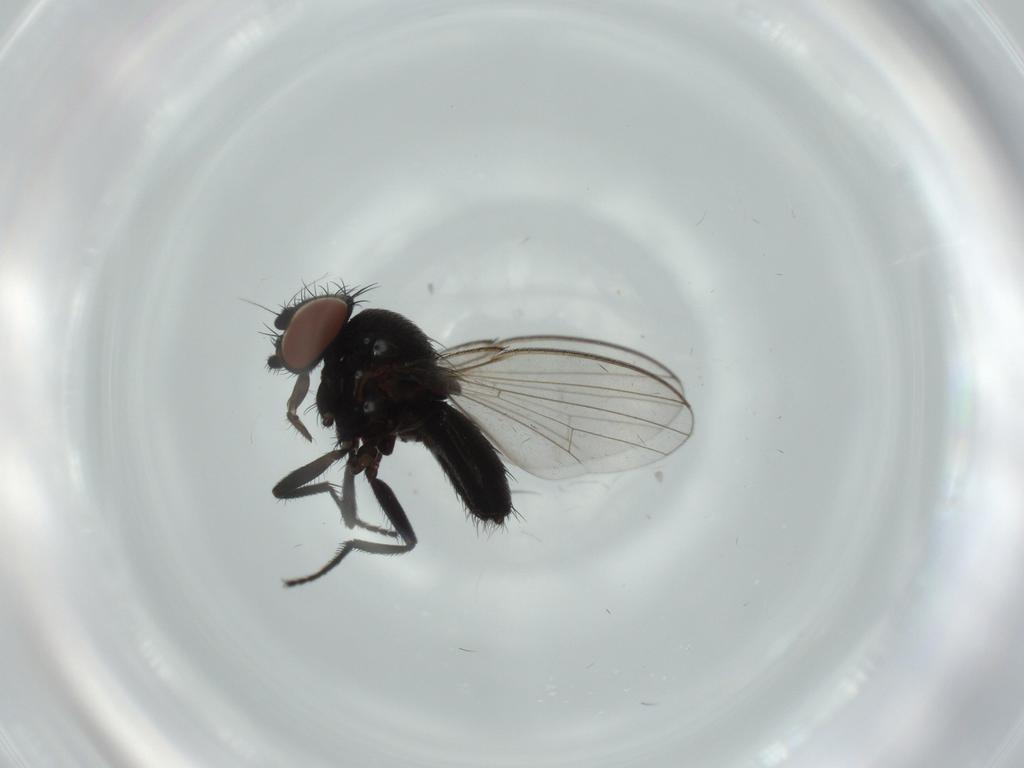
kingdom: Animalia
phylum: Arthropoda
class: Insecta
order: Diptera
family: Milichiidae
